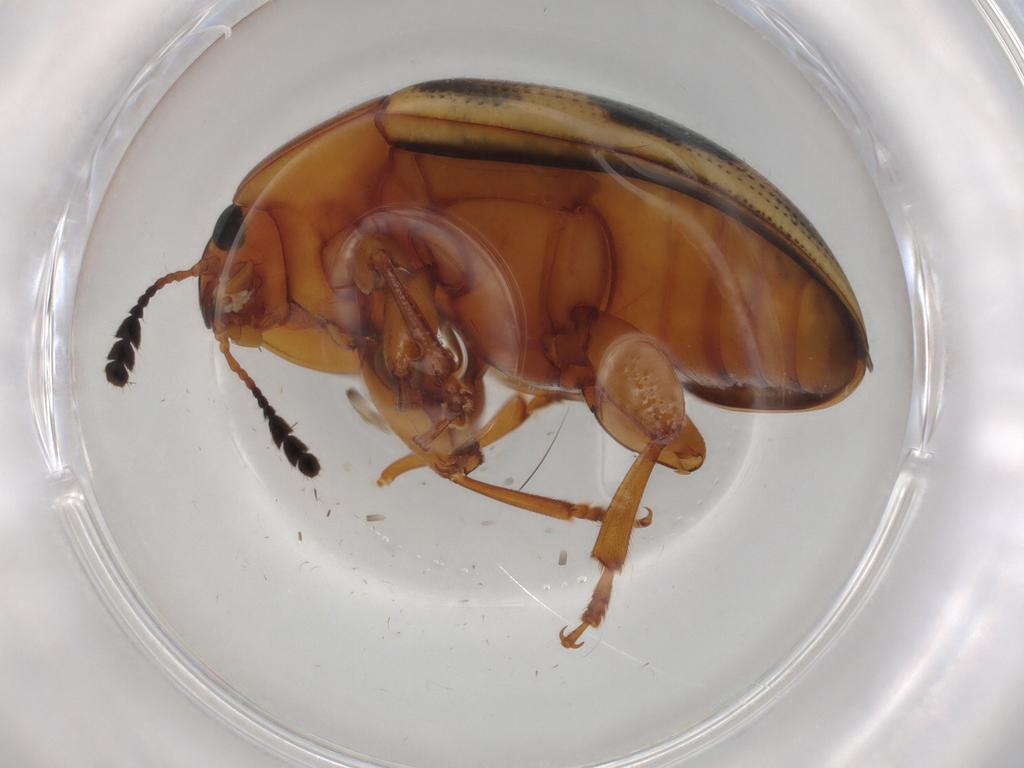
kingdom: Animalia
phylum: Arthropoda
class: Insecta
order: Coleoptera
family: Erotylidae
